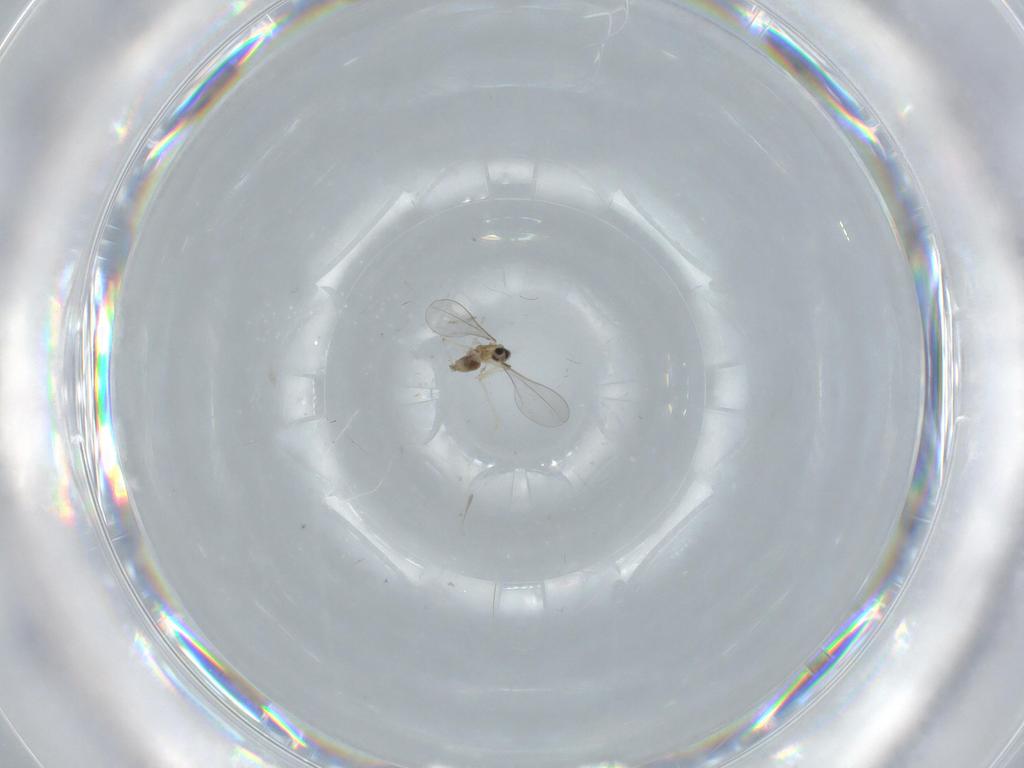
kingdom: Animalia
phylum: Arthropoda
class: Insecta
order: Diptera
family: Cecidomyiidae
